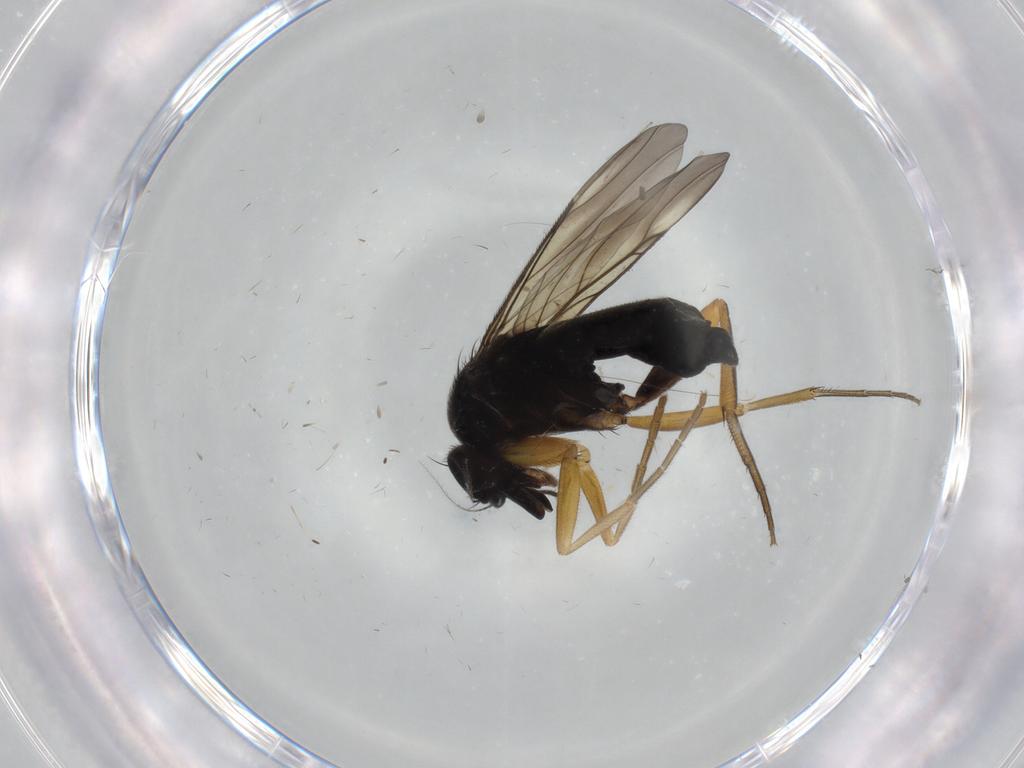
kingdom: Animalia
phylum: Arthropoda
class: Insecta
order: Diptera
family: Cecidomyiidae
